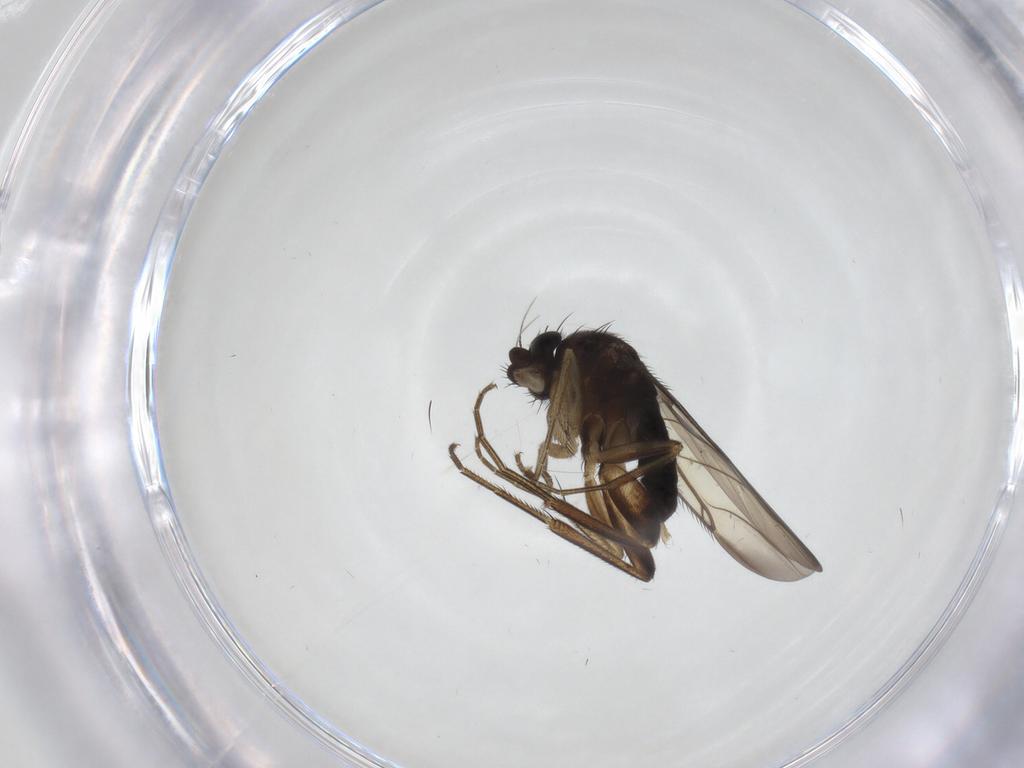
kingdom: Animalia
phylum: Arthropoda
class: Insecta
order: Diptera
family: Phoridae
